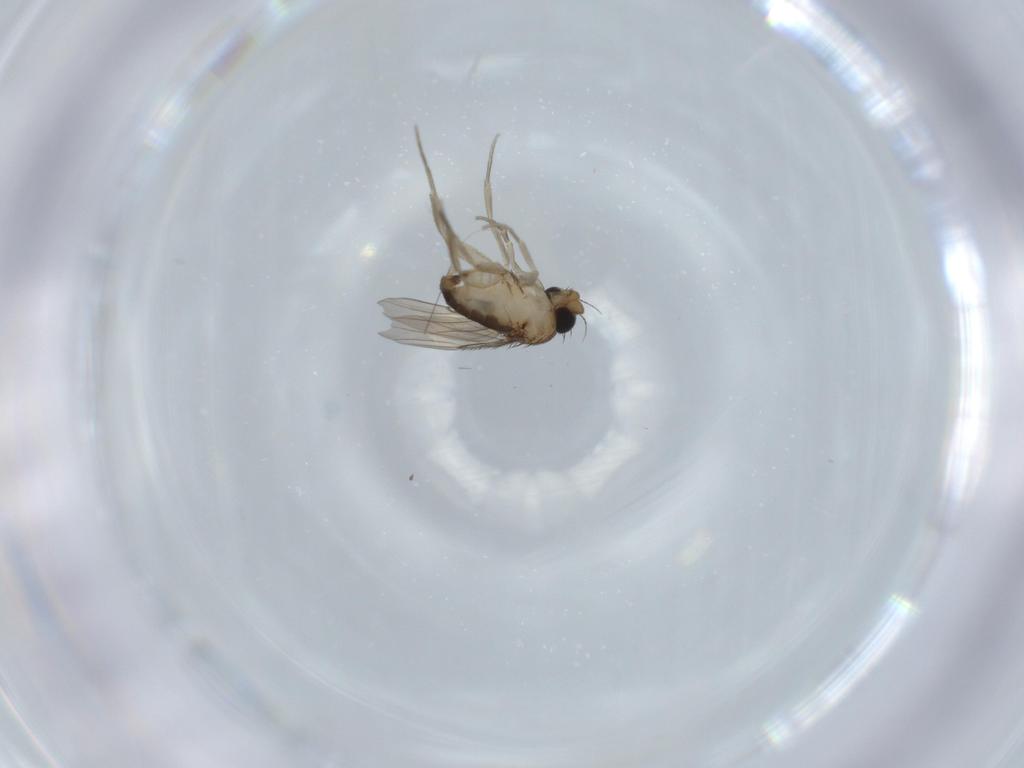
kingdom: Animalia
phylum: Arthropoda
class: Insecta
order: Diptera
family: Phoridae
